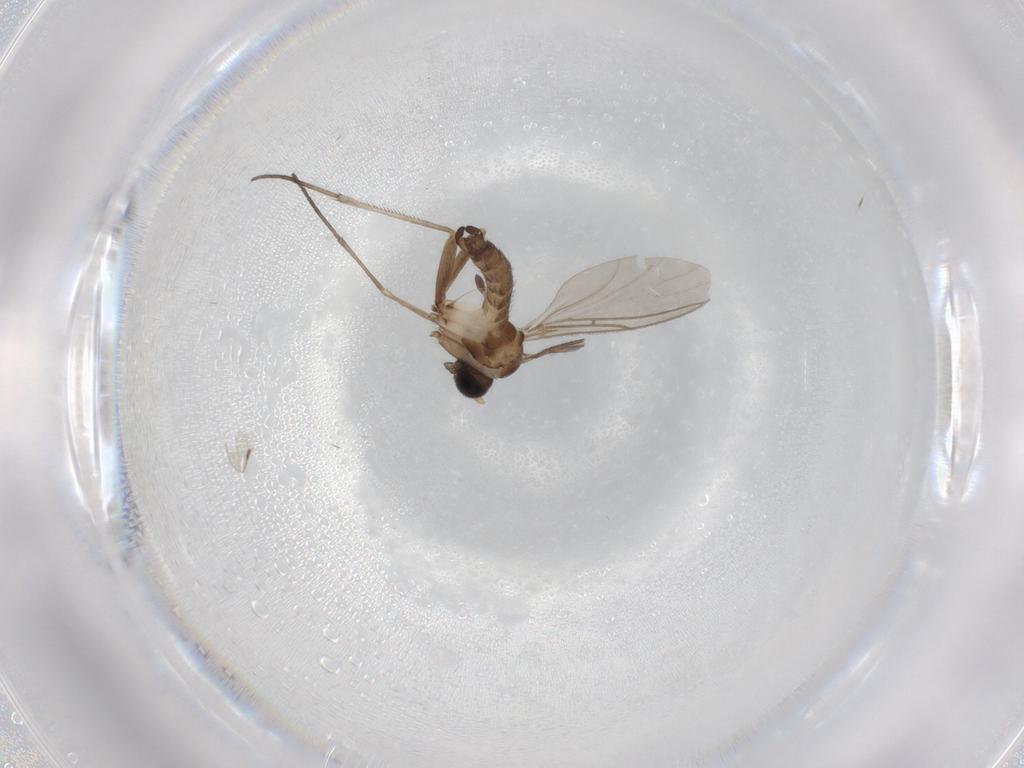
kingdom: Animalia
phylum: Arthropoda
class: Insecta
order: Diptera
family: Sciaridae
